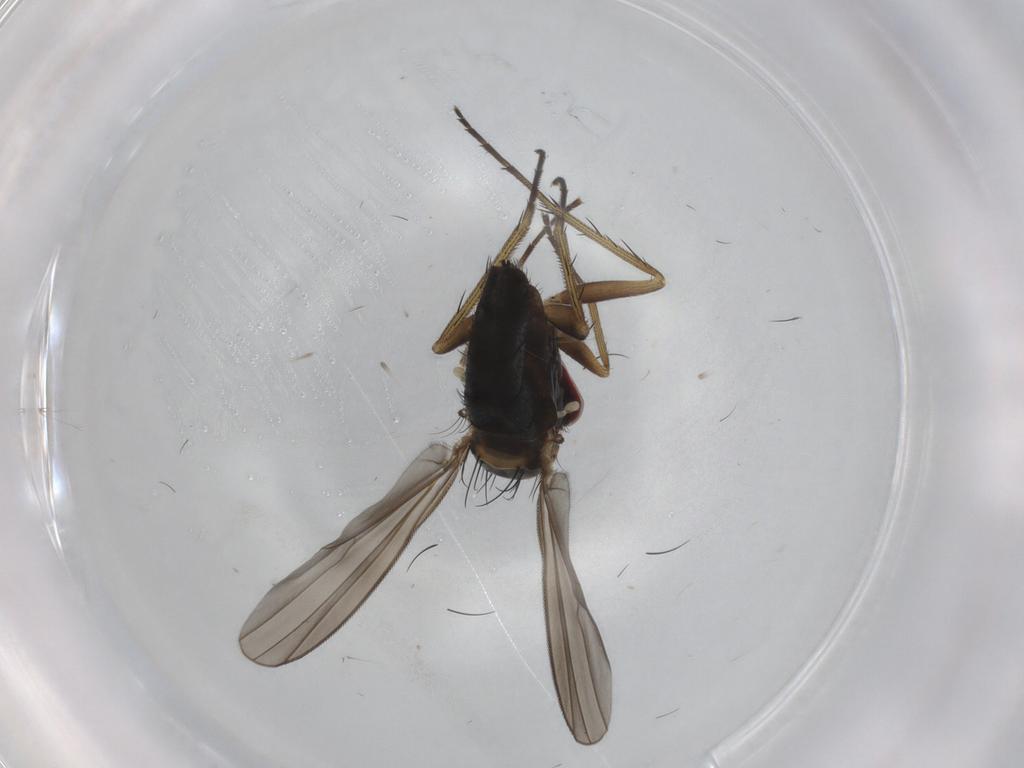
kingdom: Animalia
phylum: Arthropoda
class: Insecta
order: Diptera
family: Dolichopodidae
